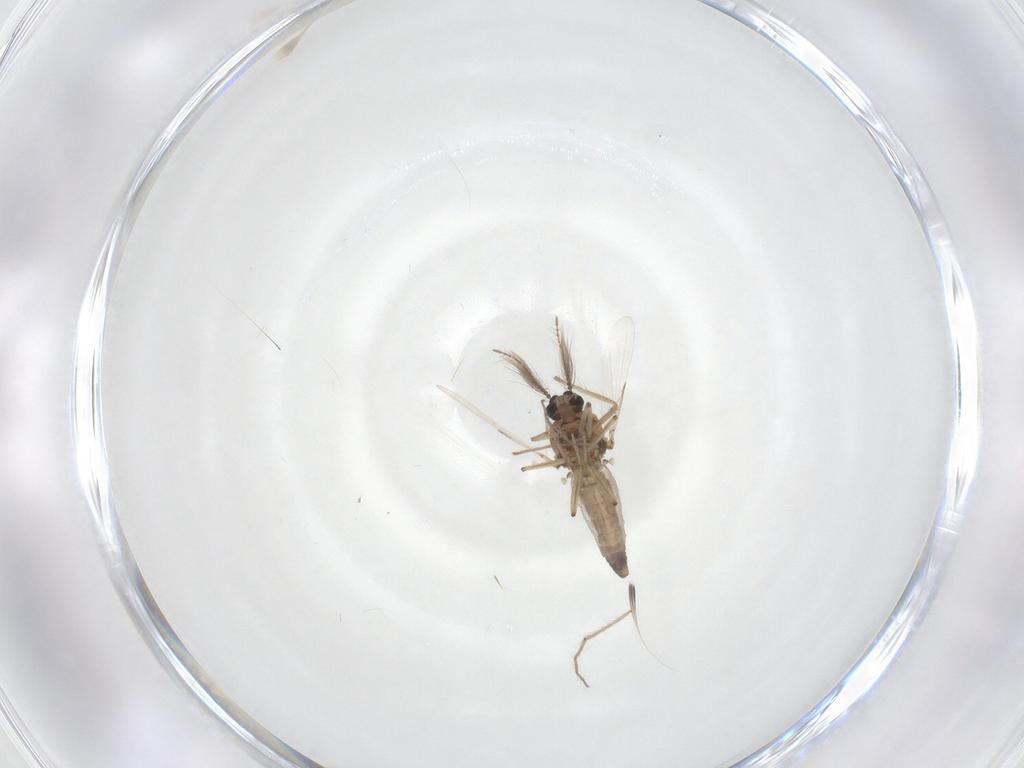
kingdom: Animalia
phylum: Arthropoda
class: Insecta
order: Diptera
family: Ceratopogonidae
